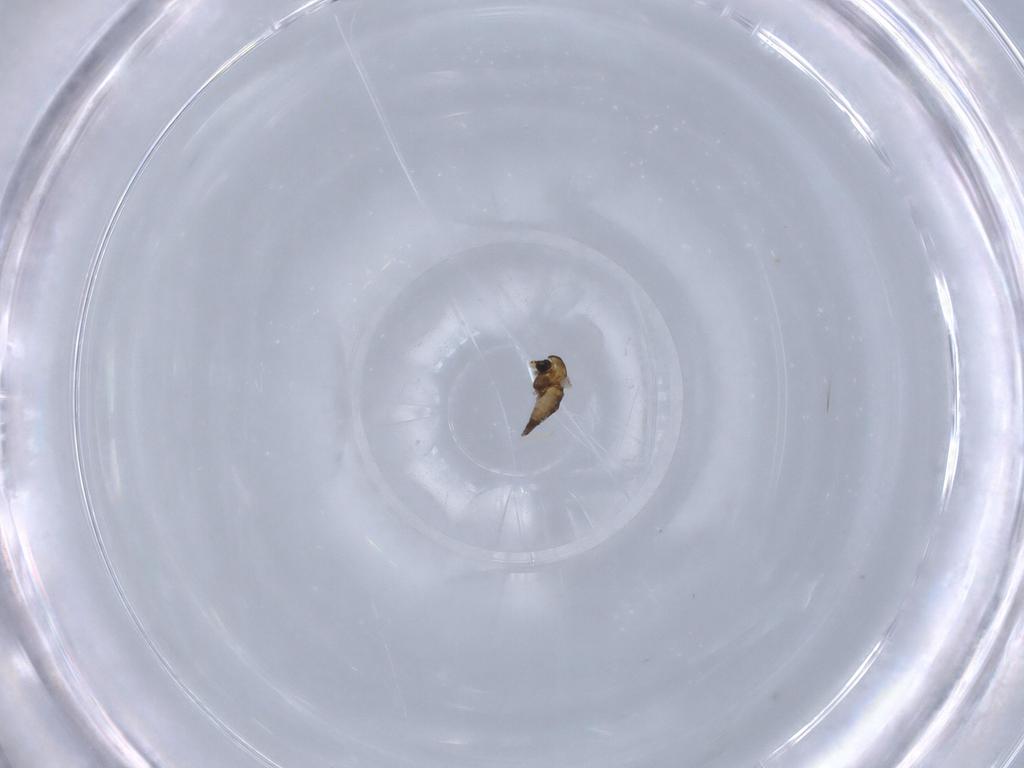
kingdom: Animalia
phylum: Arthropoda
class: Insecta
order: Diptera
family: Chironomidae
